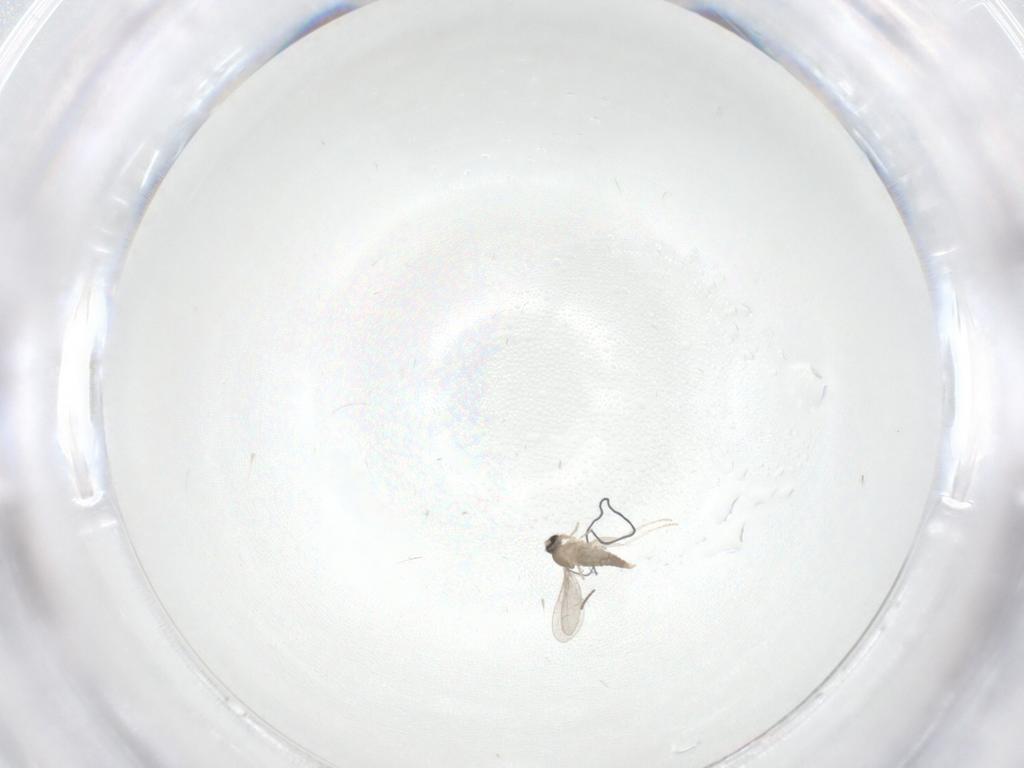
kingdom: Animalia
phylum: Arthropoda
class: Insecta
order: Diptera
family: Cecidomyiidae
